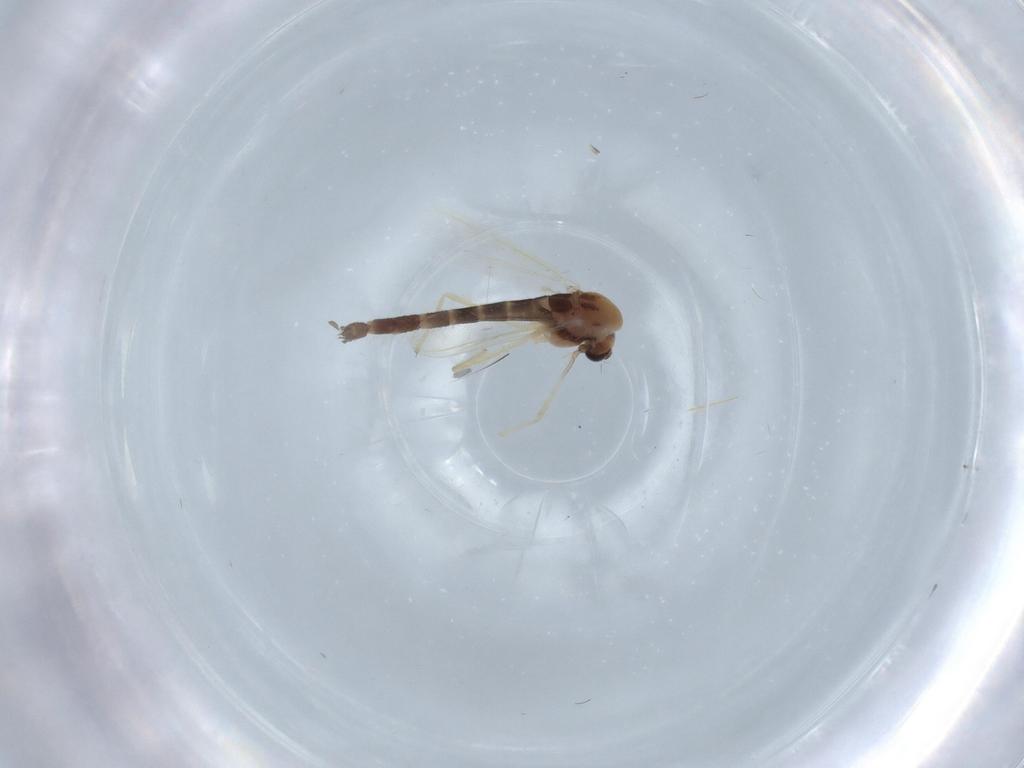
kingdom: Animalia
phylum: Arthropoda
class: Insecta
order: Diptera
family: Chironomidae
